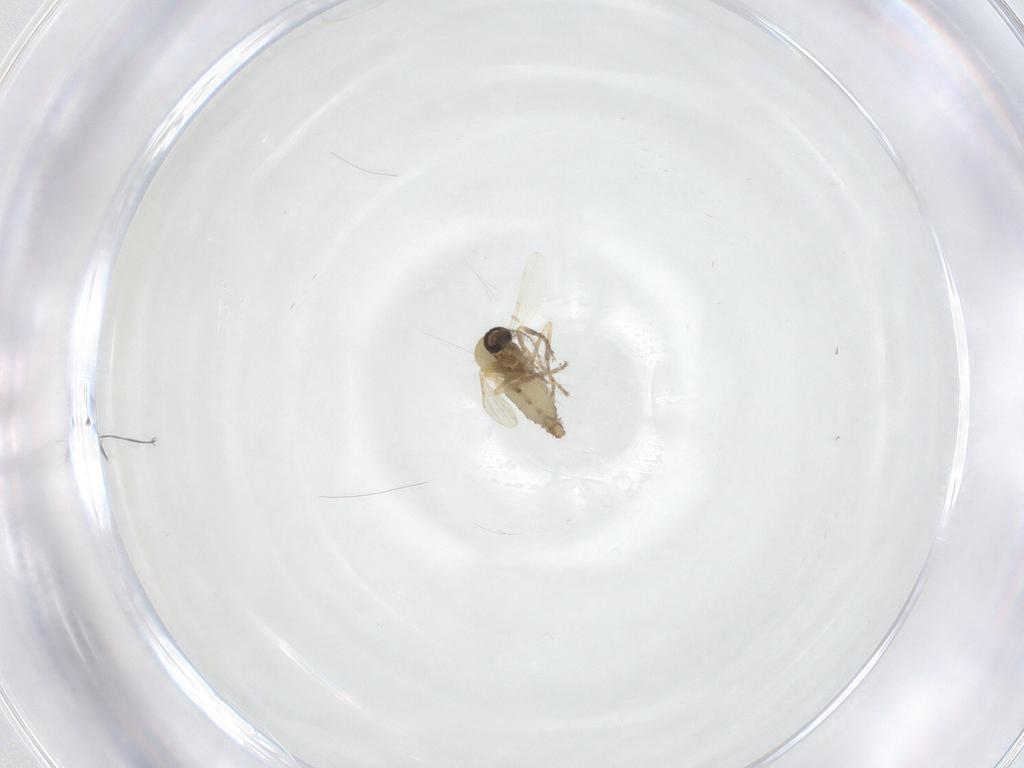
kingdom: Animalia
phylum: Arthropoda
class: Insecta
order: Diptera
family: Ceratopogonidae
